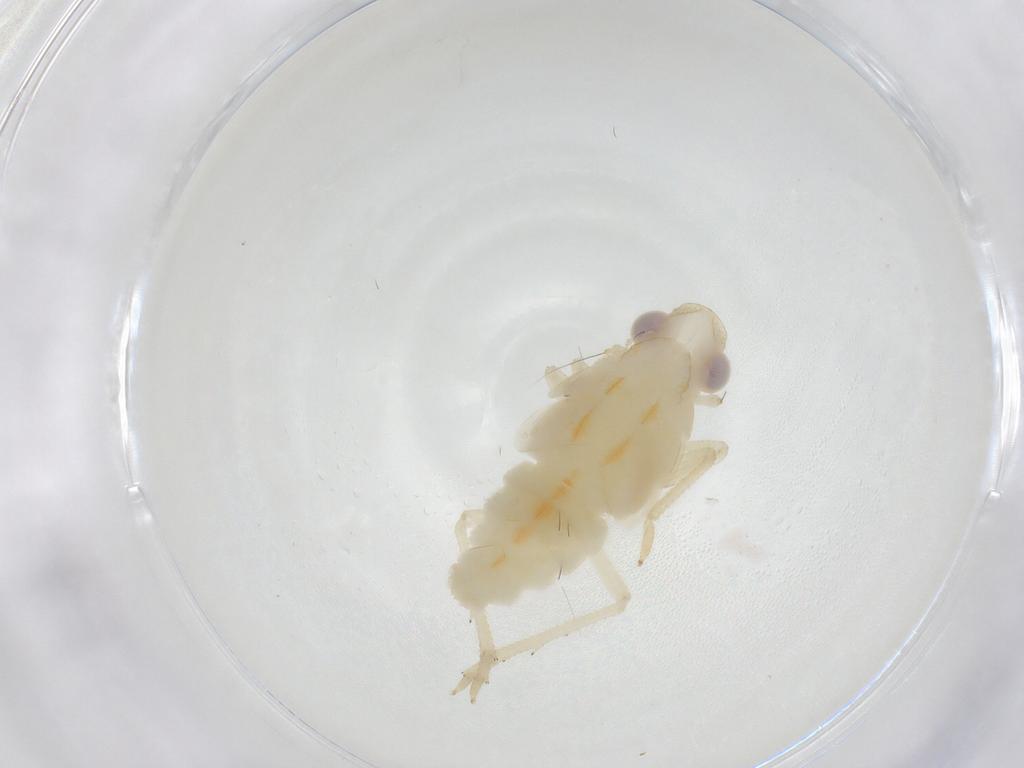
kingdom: Animalia
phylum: Arthropoda
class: Insecta
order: Hemiptera
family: Fulgoroidea_incertae_sedis
